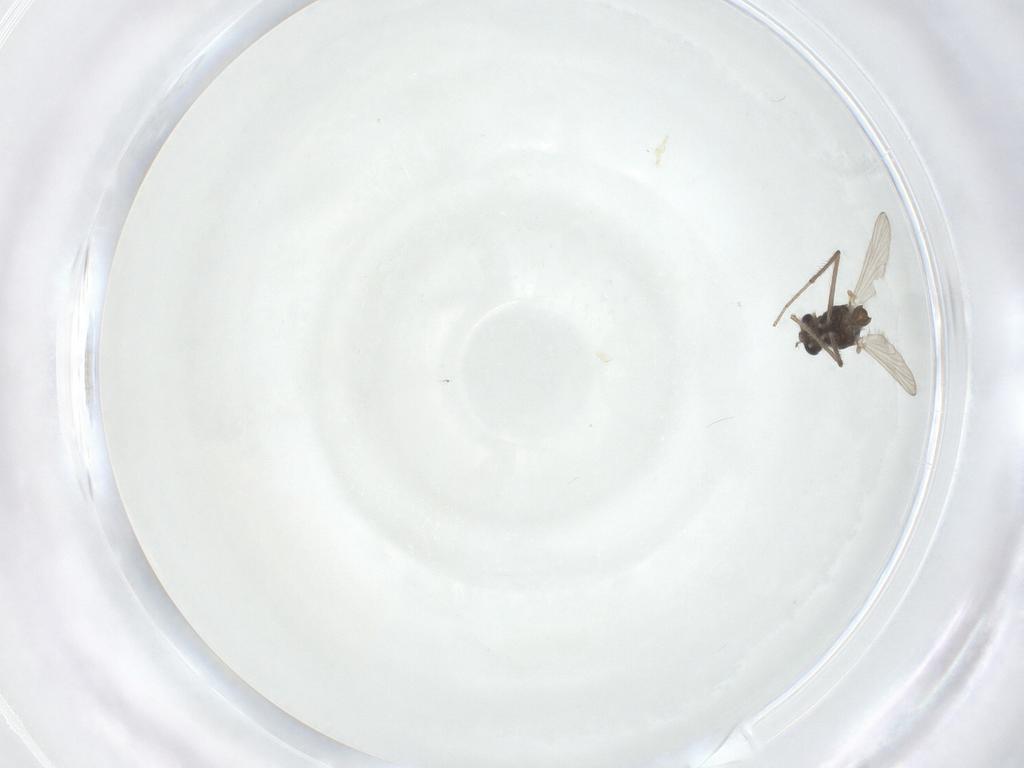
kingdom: Animalia
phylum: Arthropoda
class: Insecta
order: Diptera
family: Chironomidae
